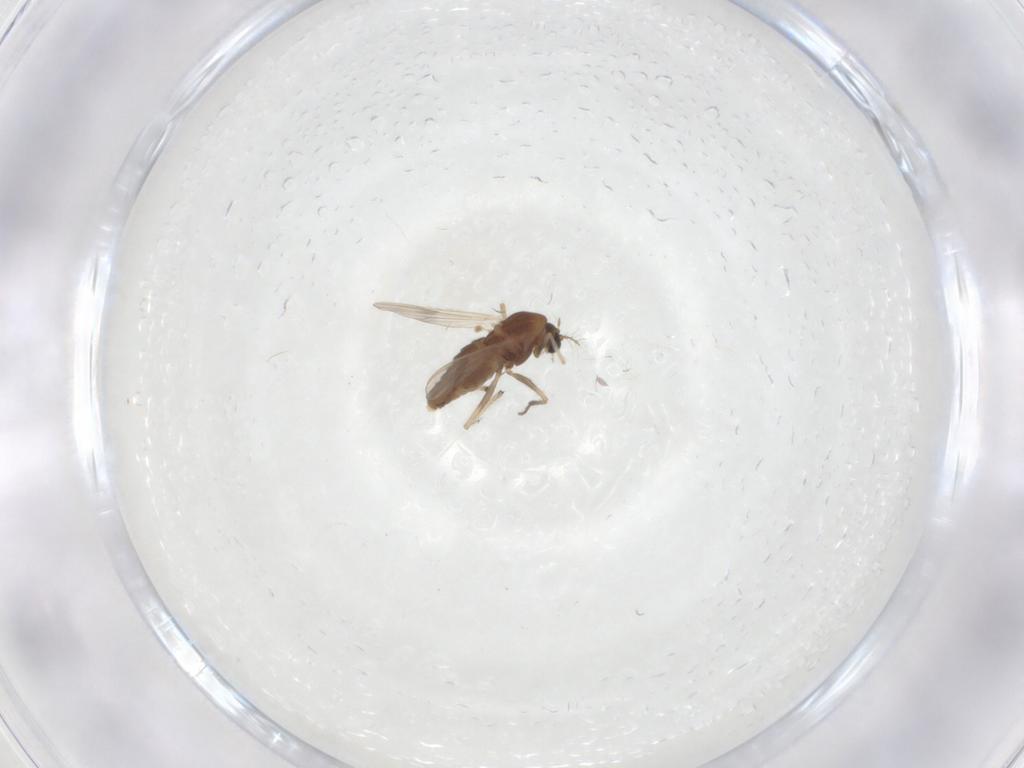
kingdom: Animalia
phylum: Arthropoda
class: Insecta
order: Diptera
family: Chironomidae
